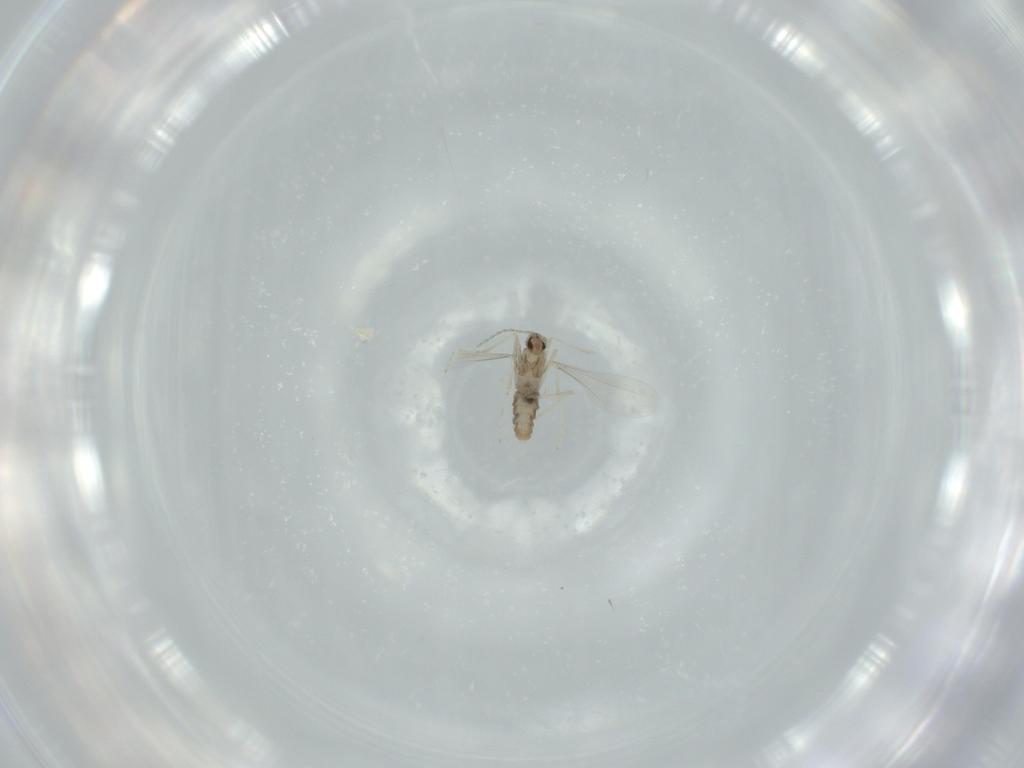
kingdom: Animalia
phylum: Arthropoda
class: Insecta
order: Diptera
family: Cecidomyiidae
